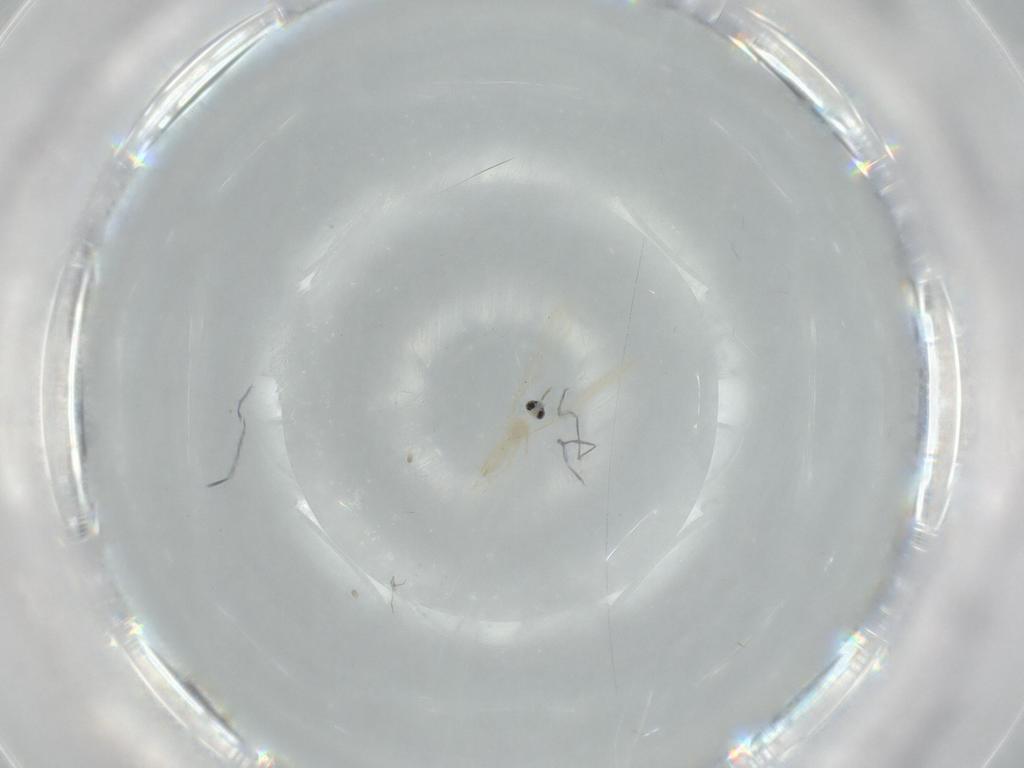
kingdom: Animalia
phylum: Arthropoda
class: Insecta
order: Diptera
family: Cecidomyiidae
